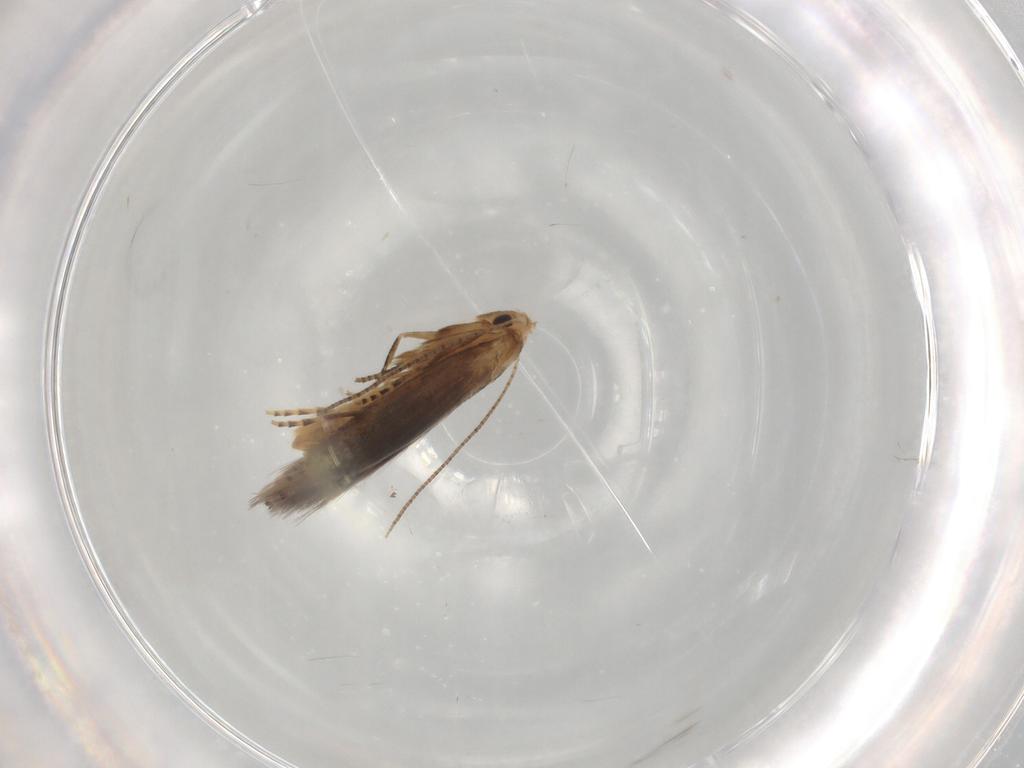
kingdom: Animalia
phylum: Arthropoda
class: Insecta
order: Lepidoptera
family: Gracillariidae
